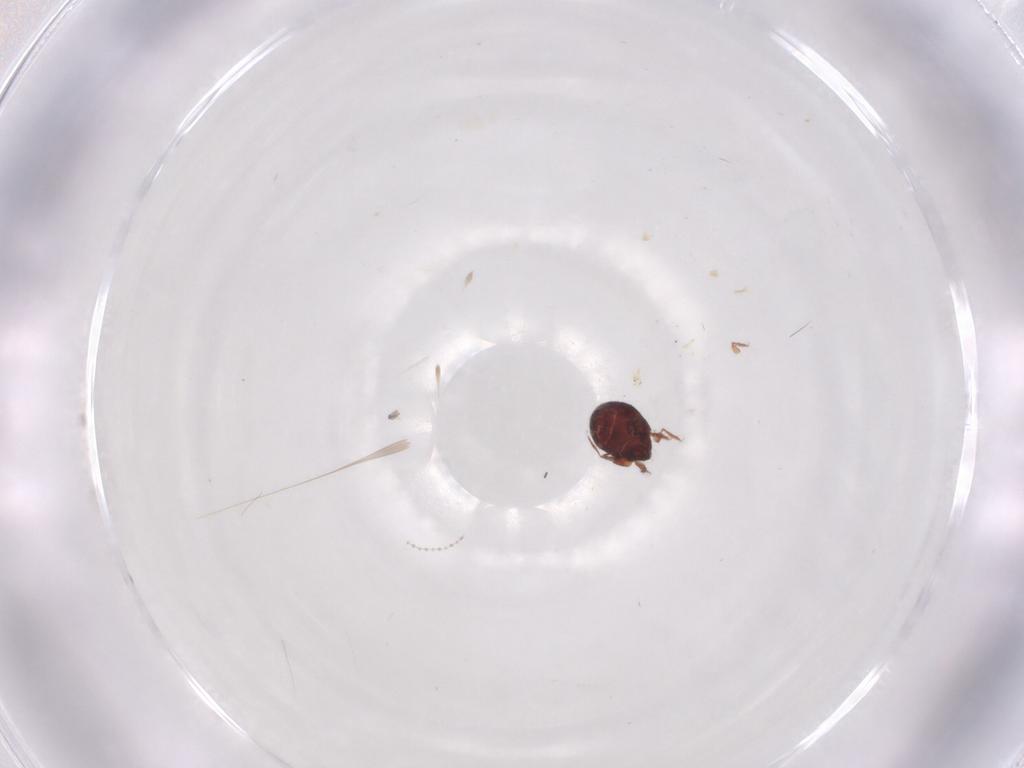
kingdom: Animalia
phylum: Arthropoda
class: Arachnida
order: Sarcoptiformes
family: Humerobatidae
